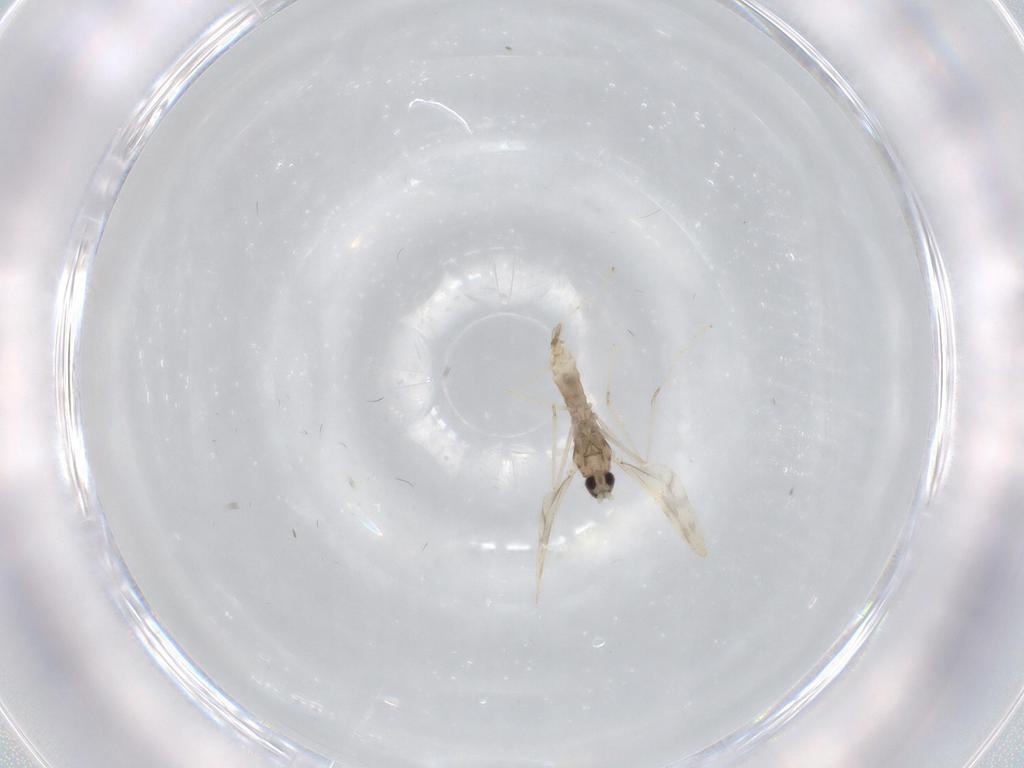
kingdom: Animalia
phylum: Arthropoda
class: Insecta
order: Diptera
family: Cecidomyiidae
